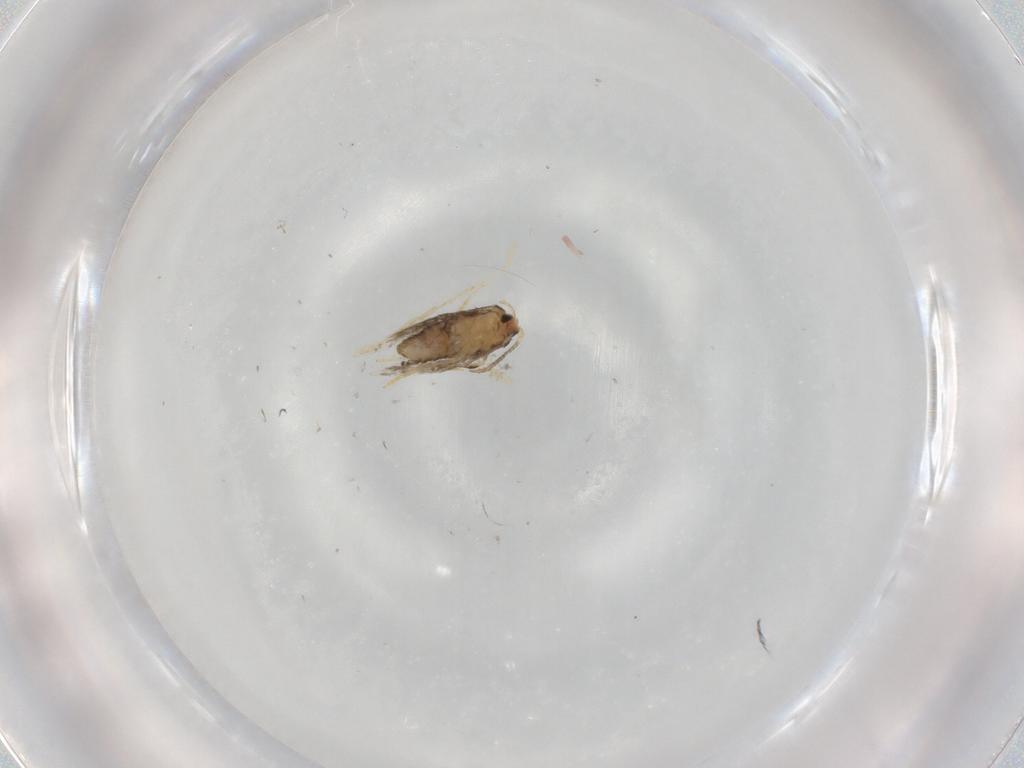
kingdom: Animalia
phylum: Arthropoda
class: Insecta
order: Lepidoptera
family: Nepticulidae
